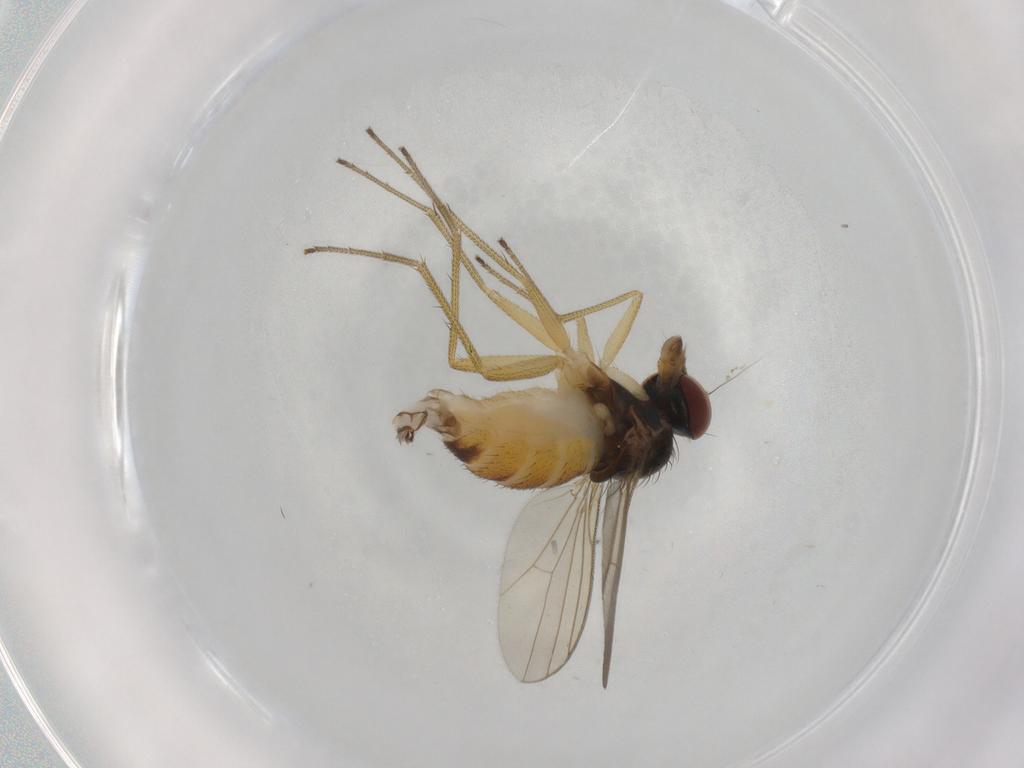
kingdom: Animalia
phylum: Arthropoda
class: Insecta
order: Diptera
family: Dolichopodidae
